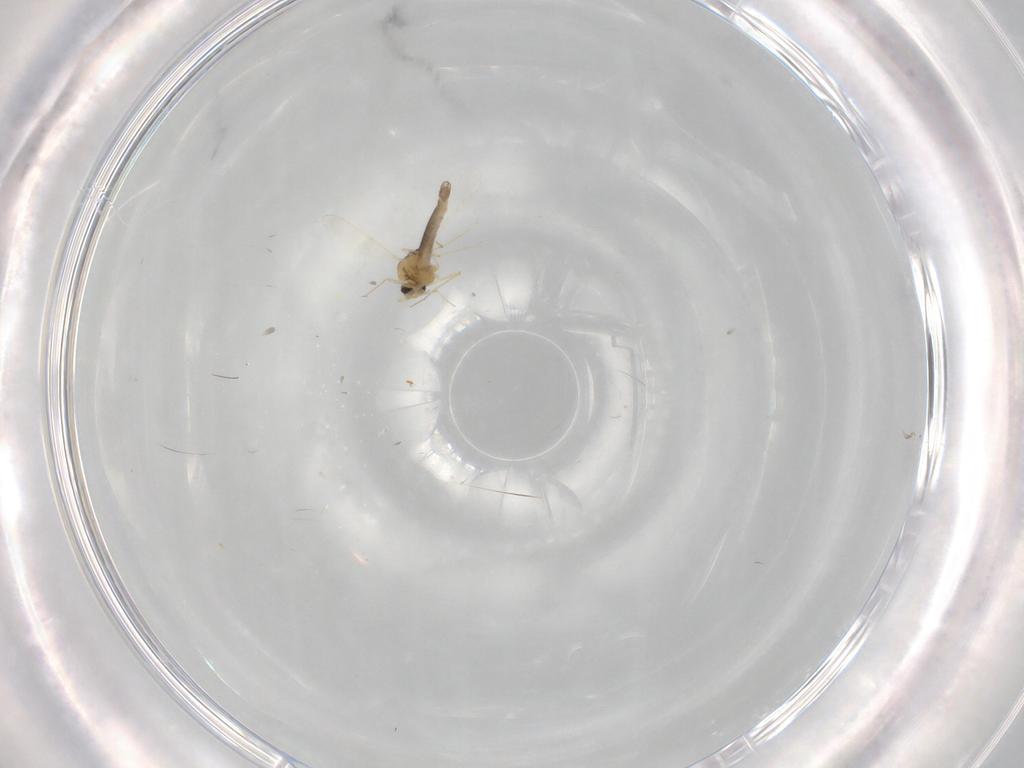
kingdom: Animalia
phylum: Arthropoda
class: Insecta
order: Diptera
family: Chironomidae
